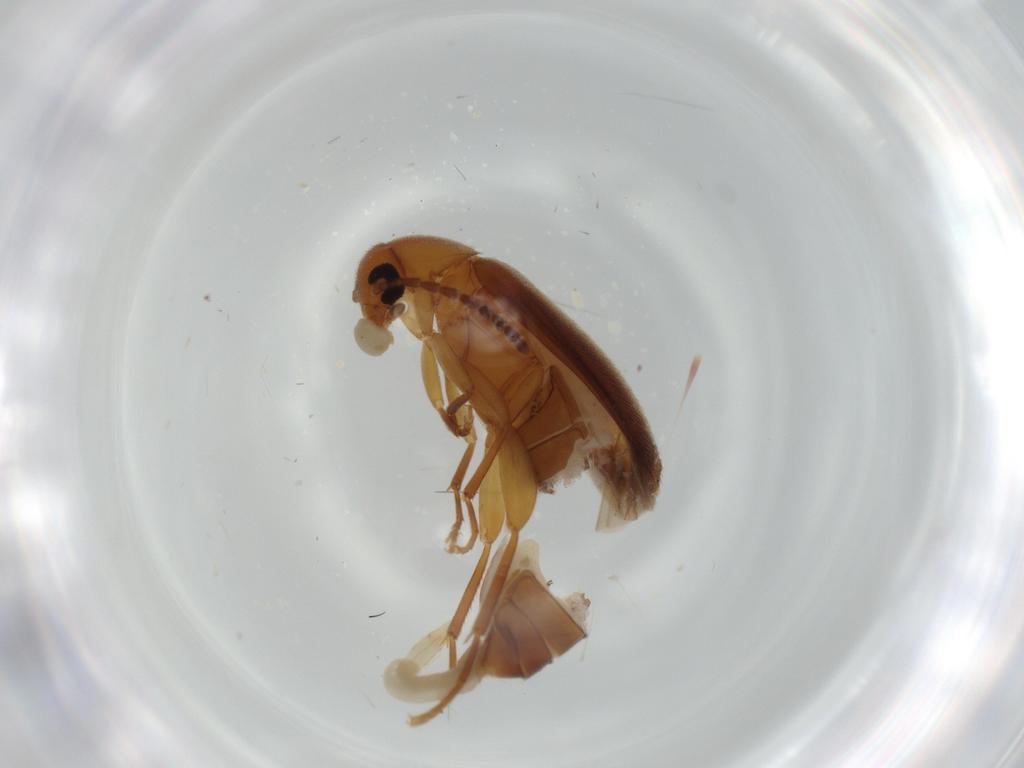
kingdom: Animalia
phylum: Arthropoda
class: Insecta
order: Coleoptera
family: Scraptiidae
